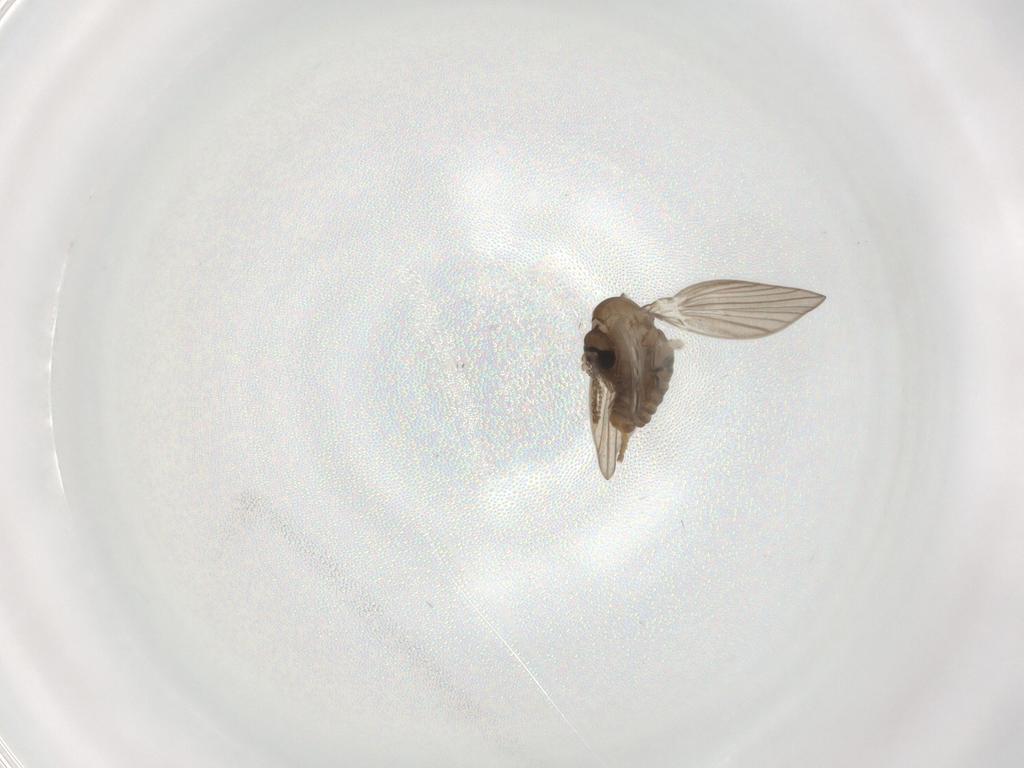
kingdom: Animalia
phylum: Arthropoda
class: Insecta
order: Diptera
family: Psychodidae
